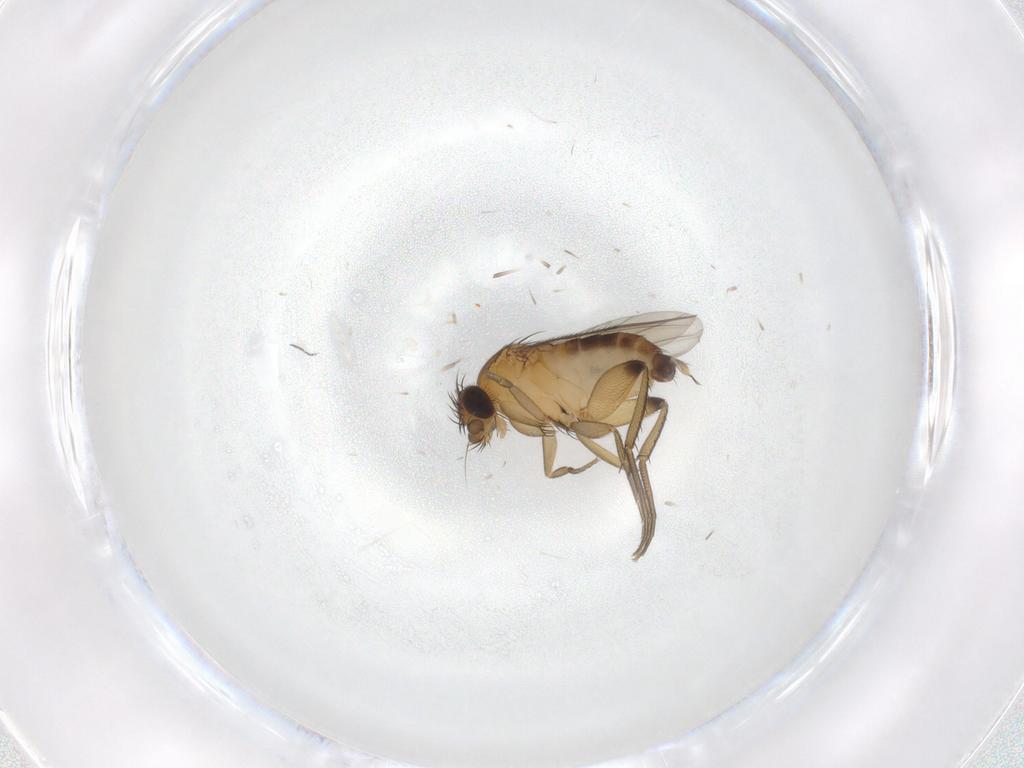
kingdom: Animalia
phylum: Arthropoda
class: Insecta
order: Diptera
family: Phoridae
